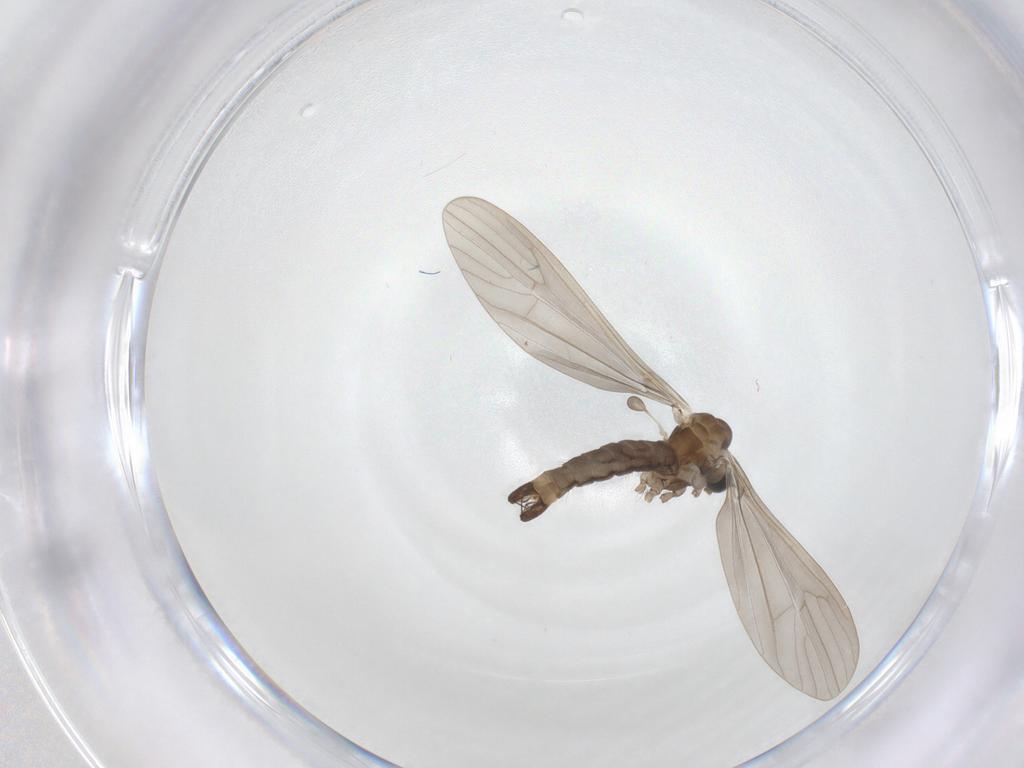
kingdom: Animalia
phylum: Arthropoda
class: Insecta
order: Diptera
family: Limoniidae
